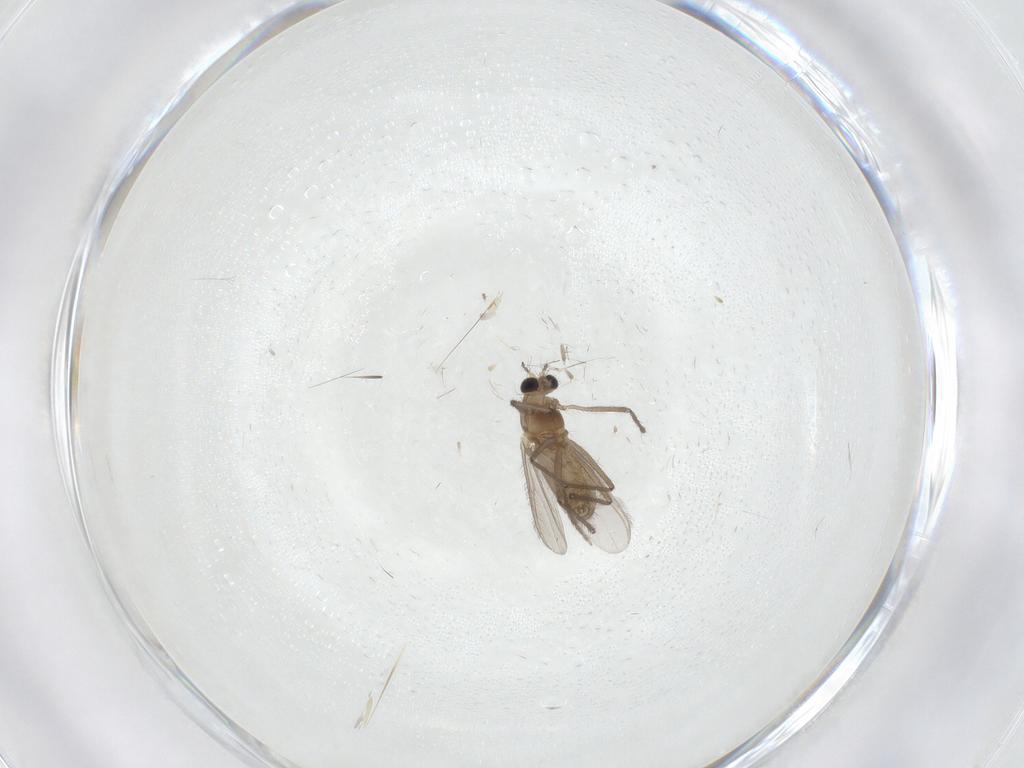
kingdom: Animalia
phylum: Arthropoda
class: Insecta
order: Diptera
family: Chironomidae
